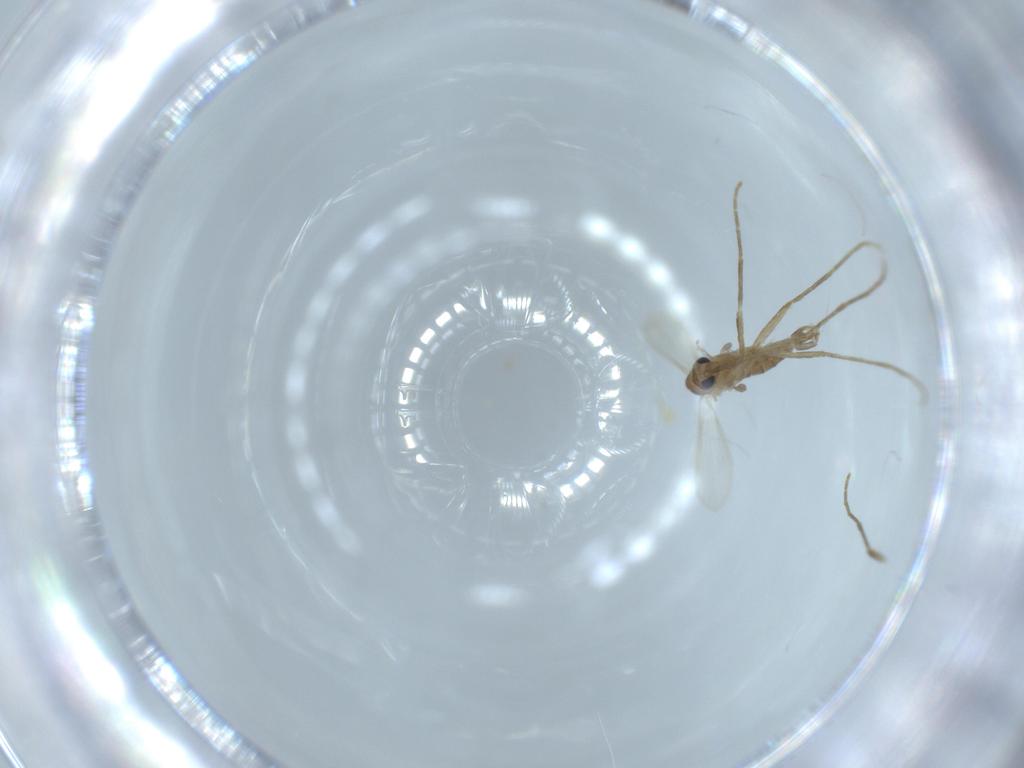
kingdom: Animalia
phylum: Arthropoda
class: Insecta
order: Diptera
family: Psychodidae
